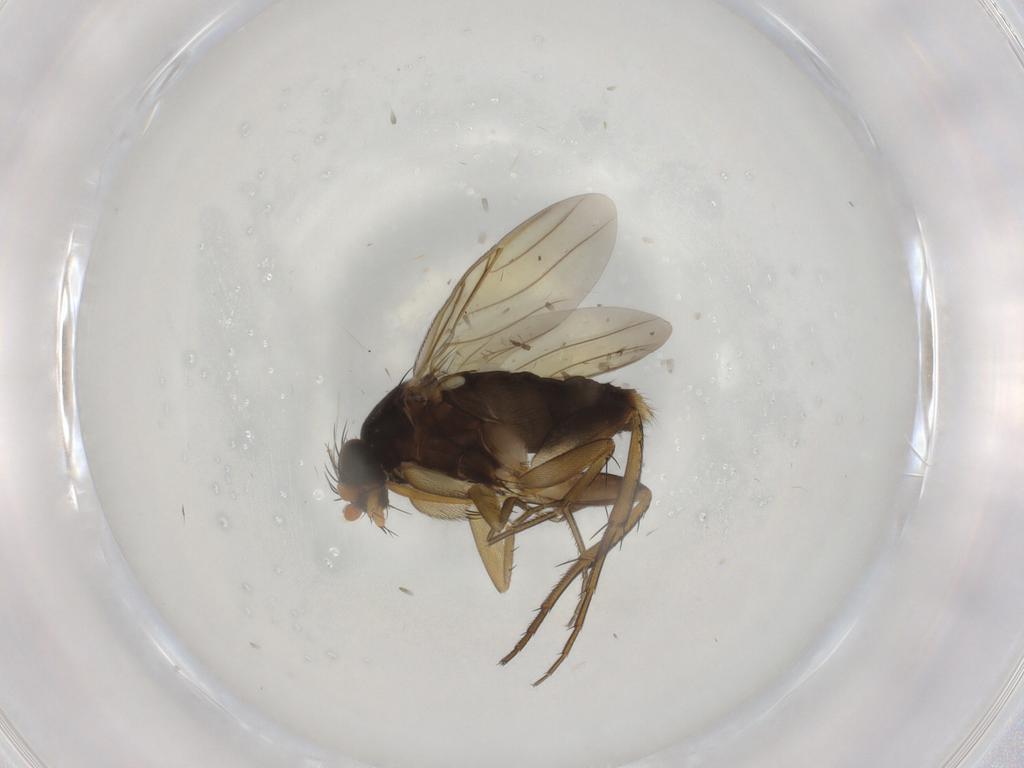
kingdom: Animalia
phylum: Arthropoda
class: Insecta
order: Diptera
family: Phoridae
